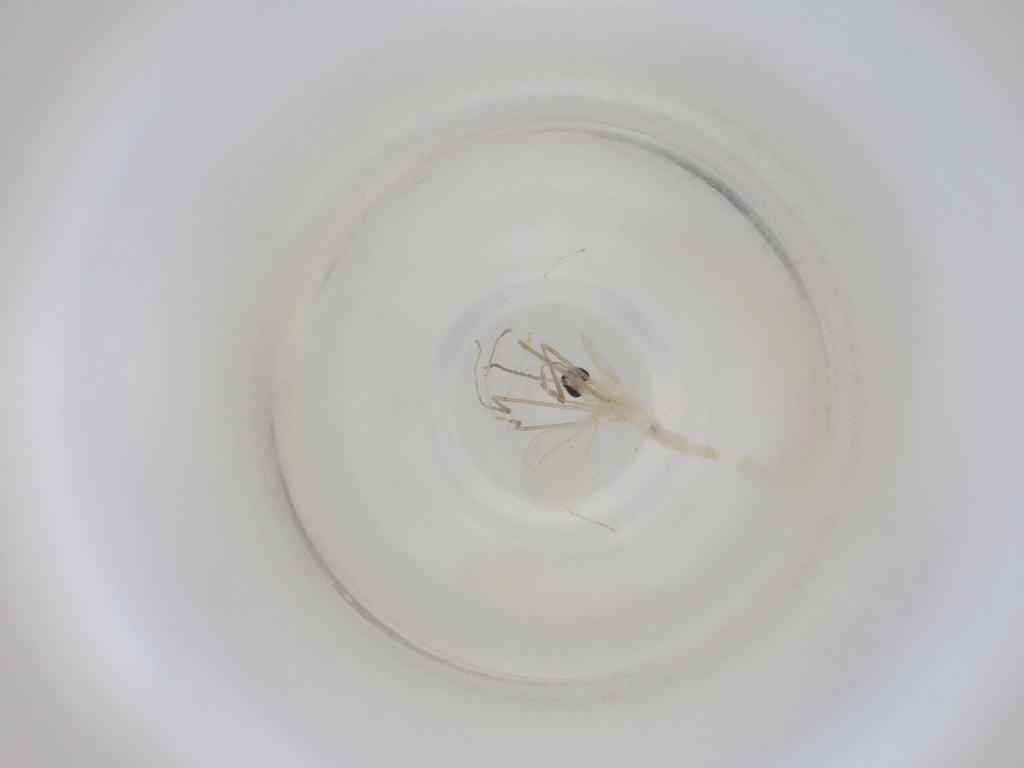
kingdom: Animalia
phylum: Arthropoda
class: Insecta
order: Diptera
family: Cecidomyiidae
